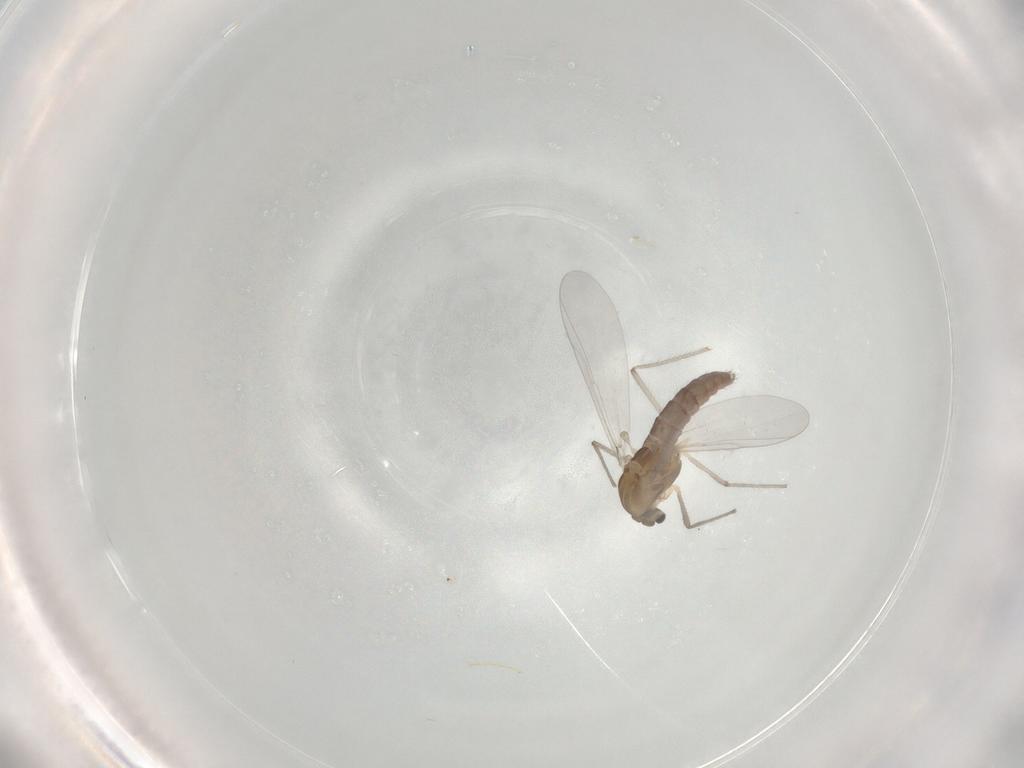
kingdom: Animalia
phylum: Arthropoda
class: Insecta
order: Diptera
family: Chironomidae
